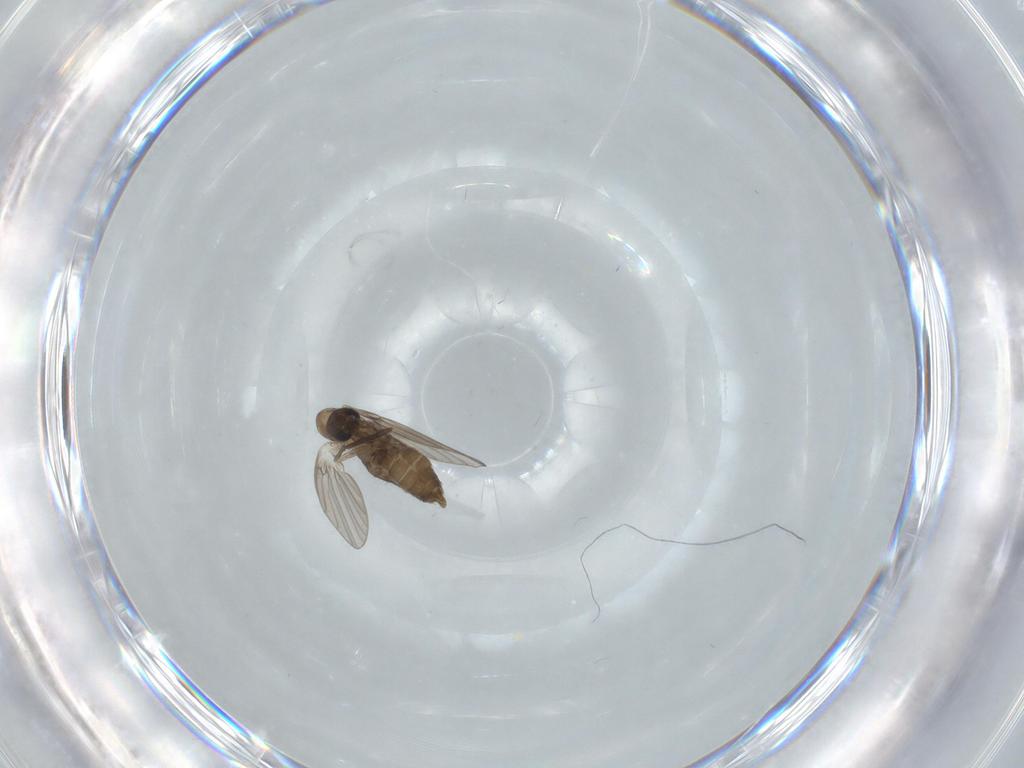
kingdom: Animalia
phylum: Arthropoda
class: Insecta
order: Diptera
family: Psychodidae
